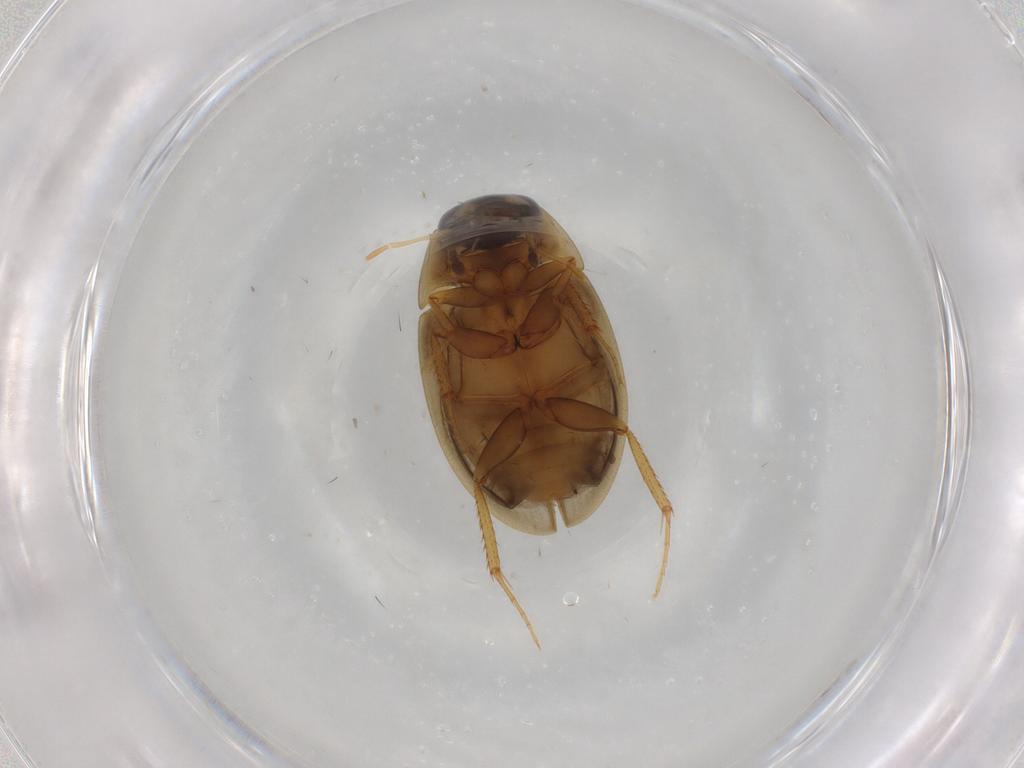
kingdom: Animalia
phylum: Arthropoda
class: Insecta
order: Coleoptera
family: Hydrophilidae
